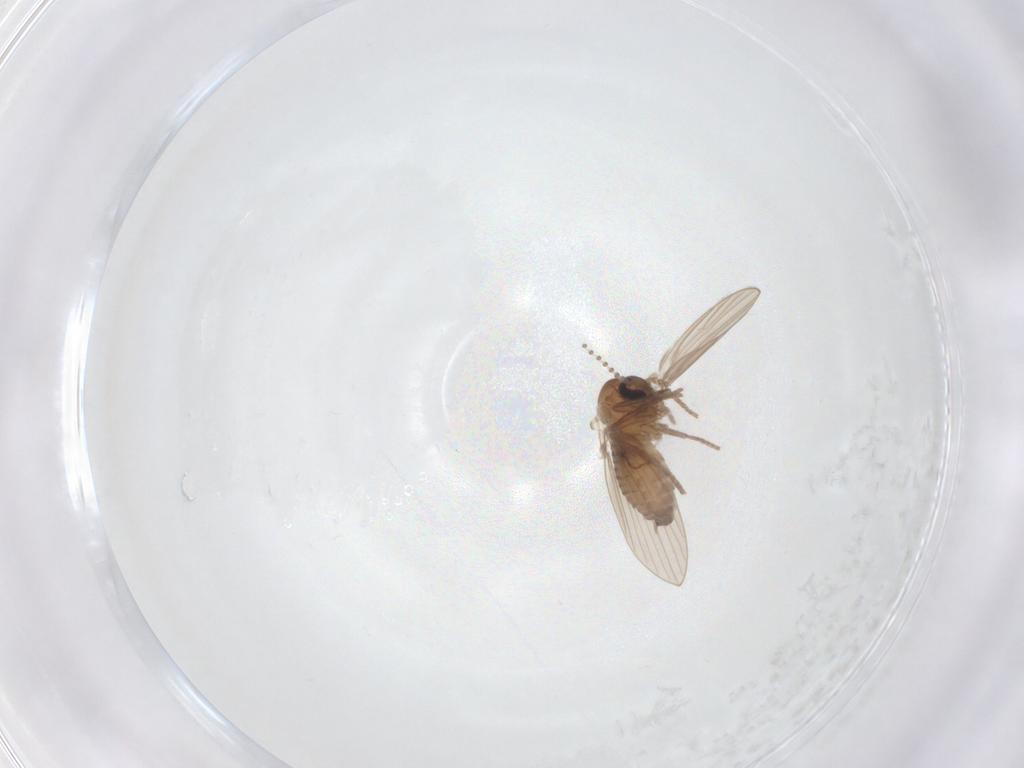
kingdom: Animalia
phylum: Arthropoda
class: Insecta
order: Diptera
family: Psychodidae
